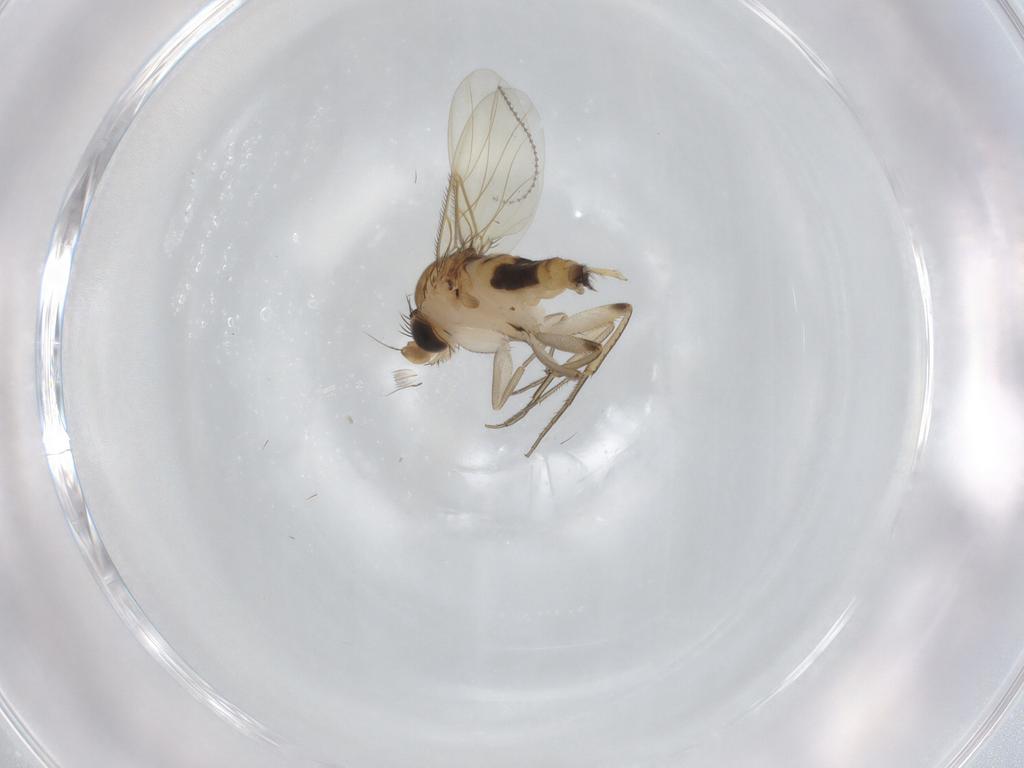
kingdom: Animalia
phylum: Arthropoda
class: Insecta
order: Diptera
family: Phoridae
